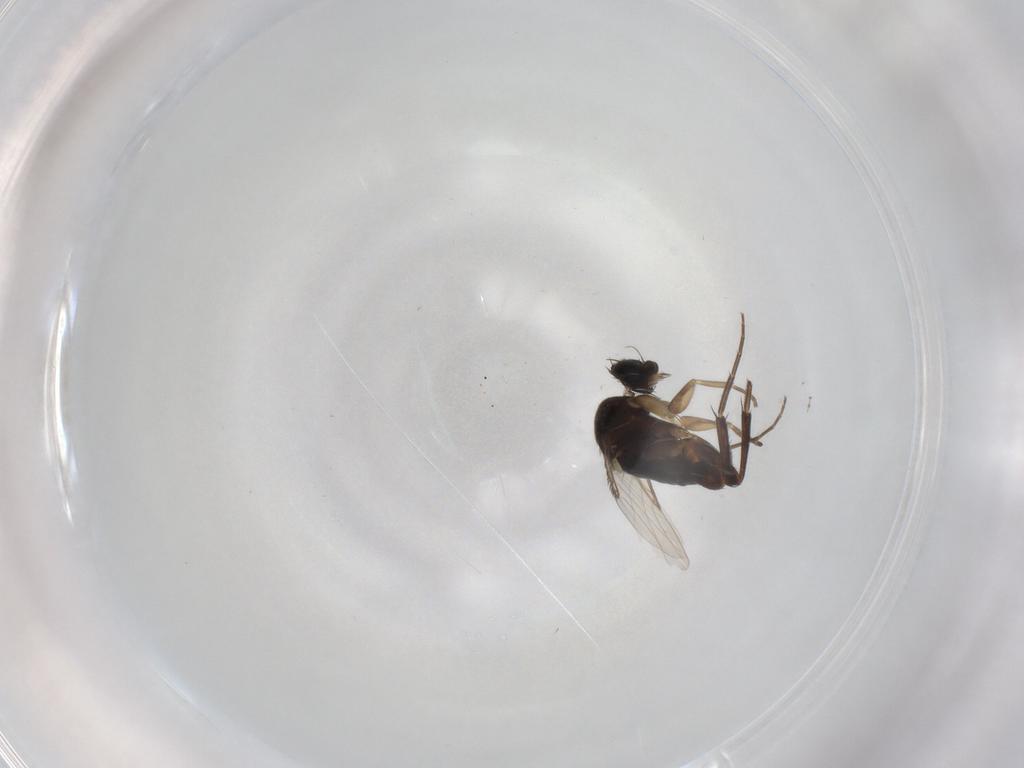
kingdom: Animalia
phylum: Arthropoda
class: Insecta
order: Diptera
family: Phoridae
